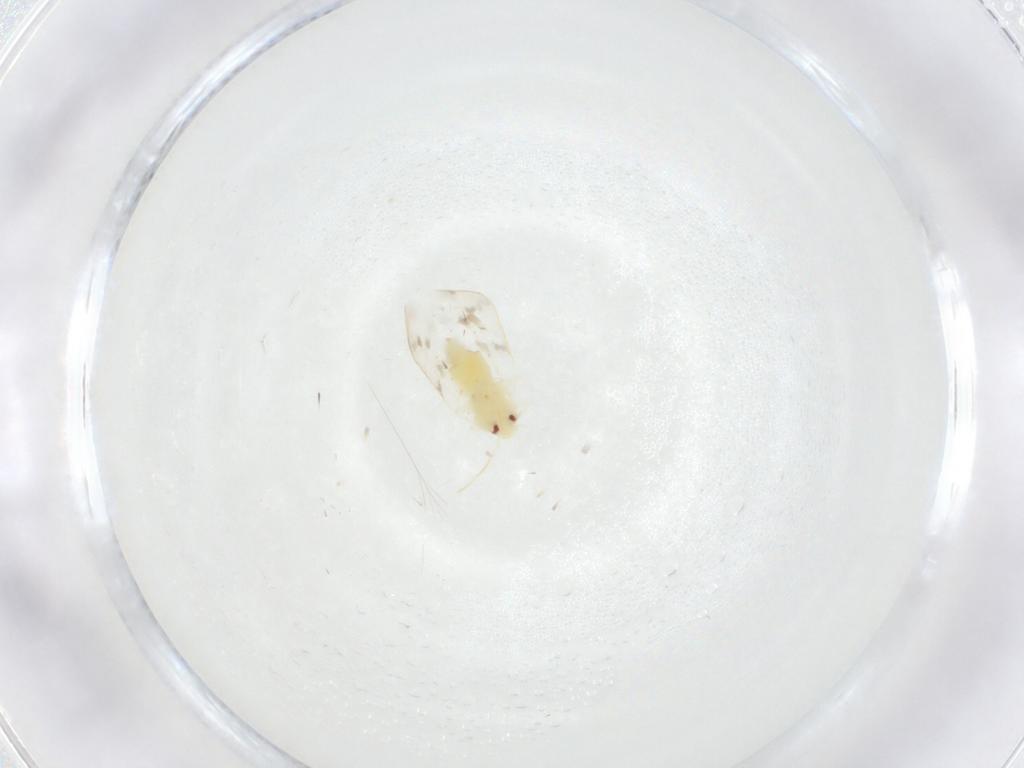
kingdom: Animalia
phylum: Arthropoda
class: Insecta
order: Hemiptera
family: Aleyrodidae
